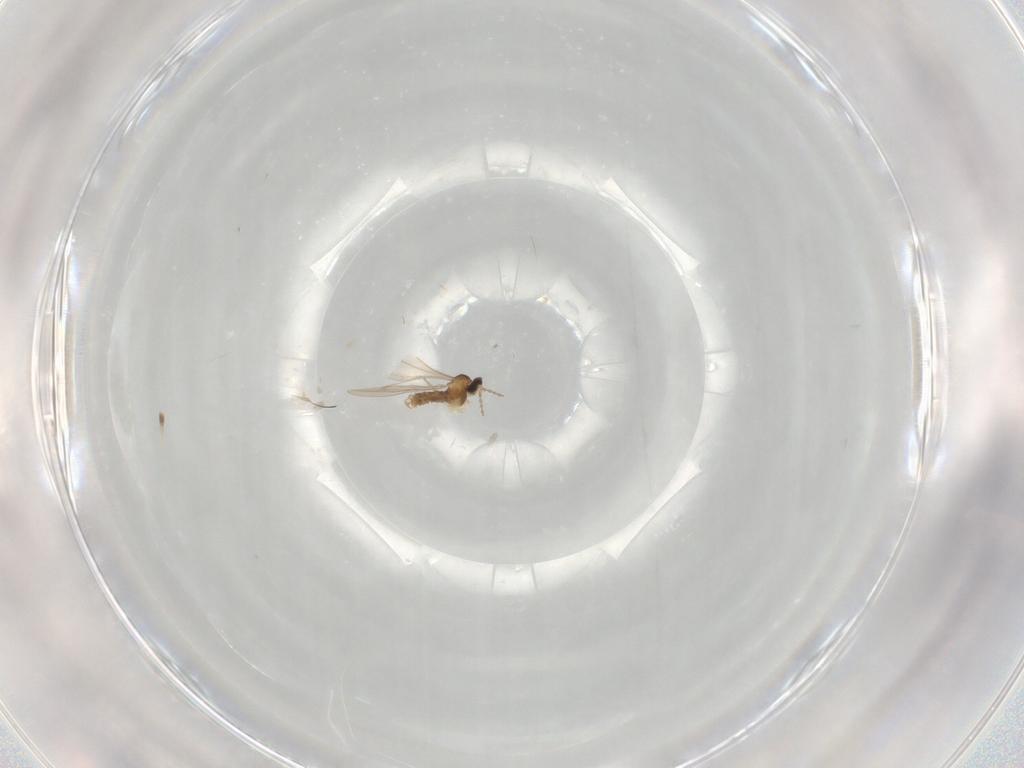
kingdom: Animalia
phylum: Arthropoda
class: Insecta
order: Diptera
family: Cecidomyiidae
